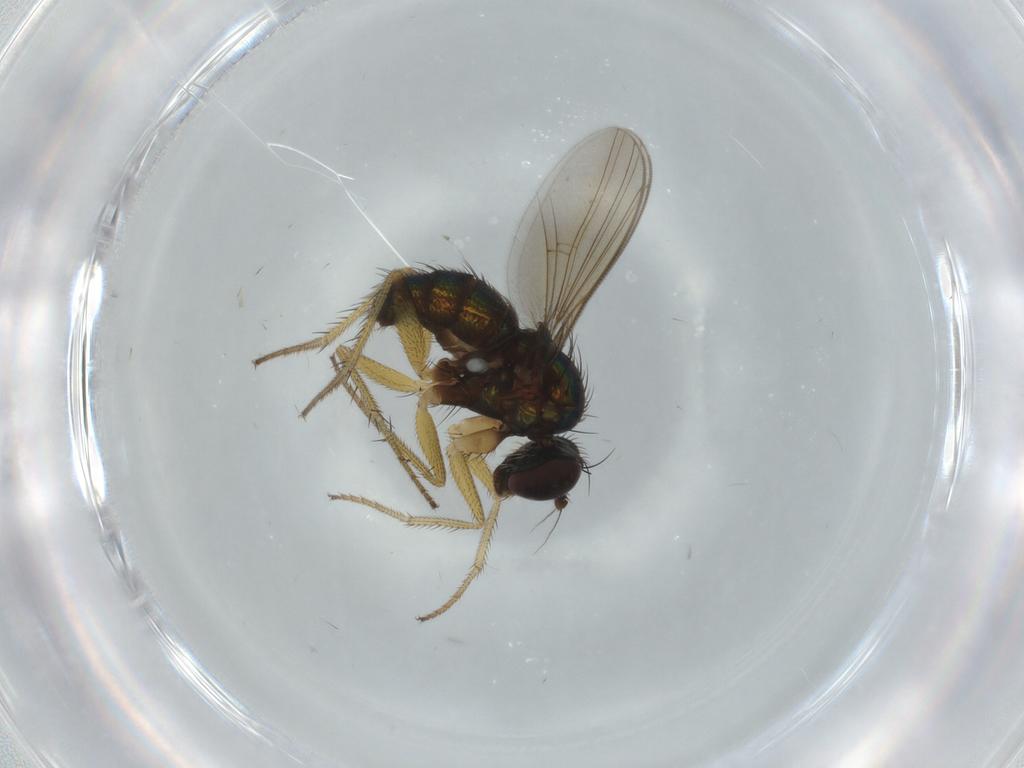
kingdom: Animalia
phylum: Arthropoda
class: Insecta
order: Diptera
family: Dolichopodidae
